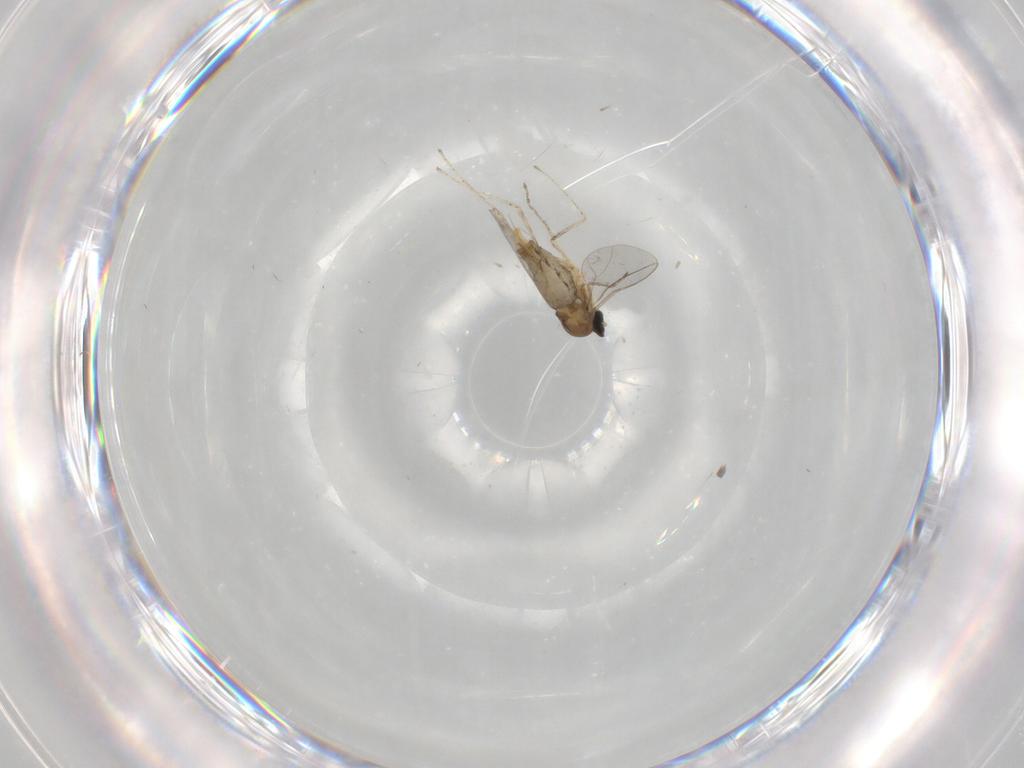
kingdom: Animalia
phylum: Arthropoda
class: Insecta
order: Diptera
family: Cecidomyiidae
